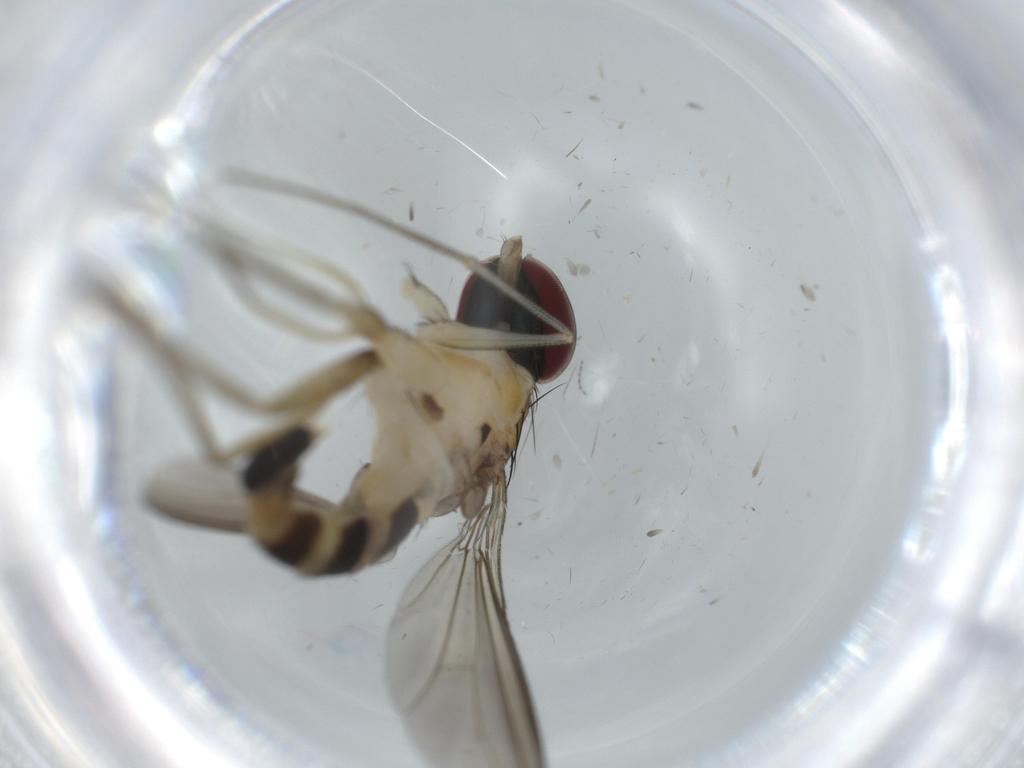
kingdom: Animalia
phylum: Arthropoda
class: Insecta
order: Diptera
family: Dolichopodidae
